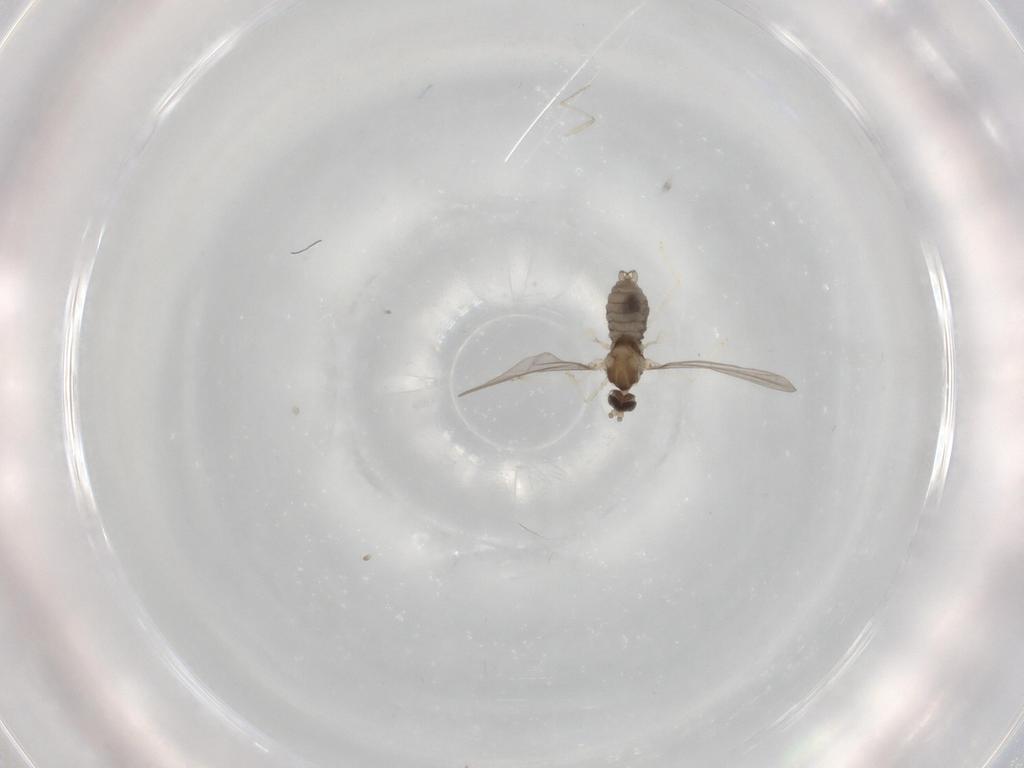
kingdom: Animalia
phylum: Arthropoda
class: Insecta
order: Diptera
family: Cecidomyiidae
